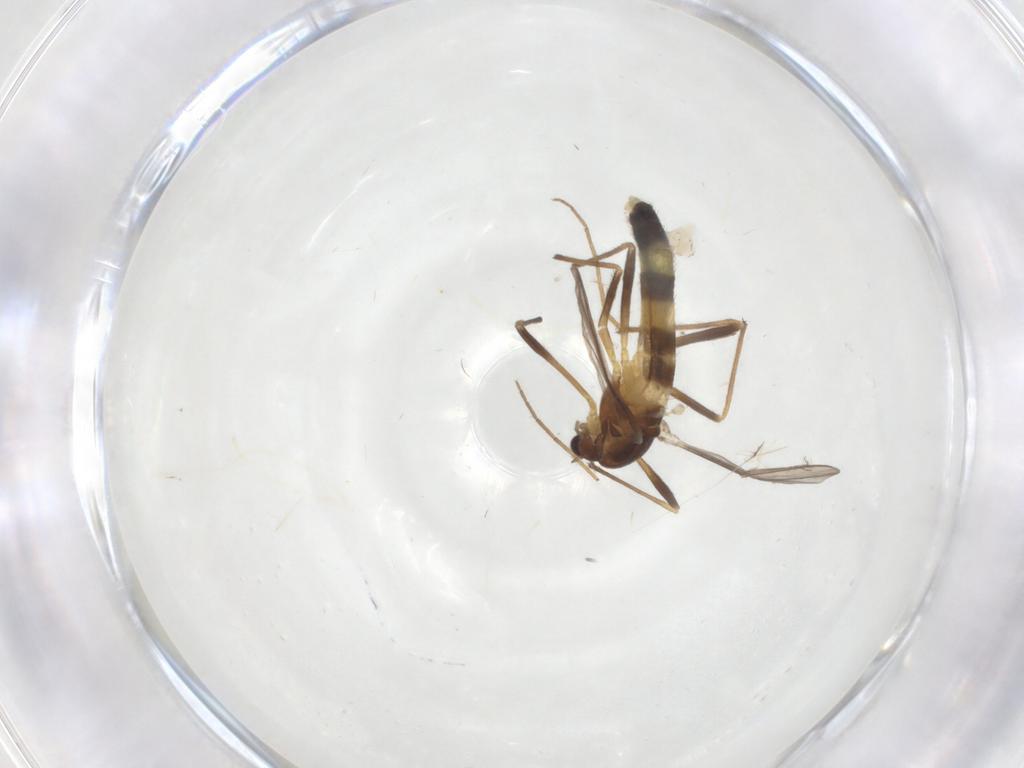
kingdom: Animalia
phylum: Arthropoda
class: Insecta
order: Diptera
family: Chironomidae
